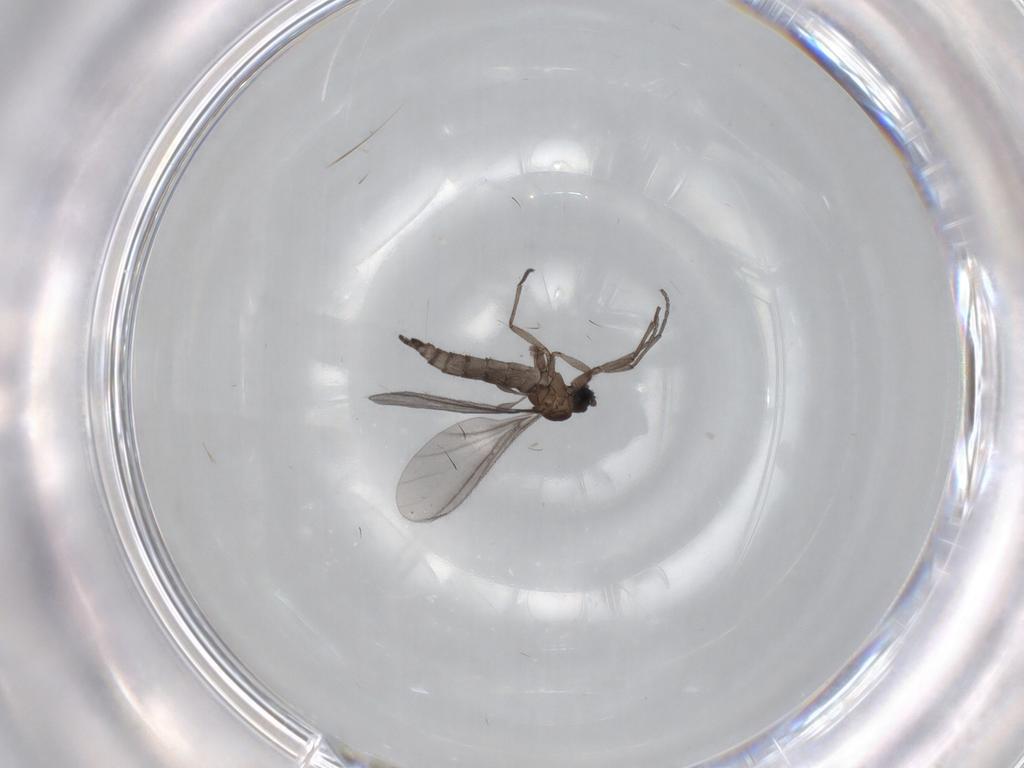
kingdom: Animalia
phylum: Arthropoda
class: Insecta
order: Diptera
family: Sciaridae
